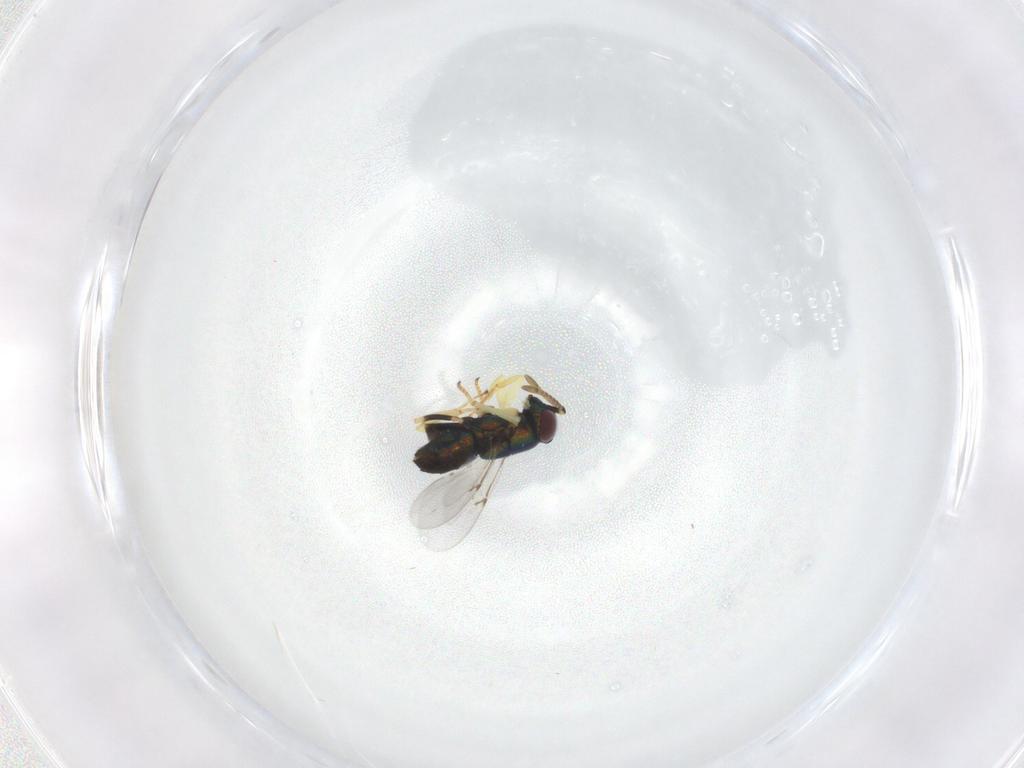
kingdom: Animalia
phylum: Arthropoda
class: Insecta
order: Hymenoptera
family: Encyrtidae
